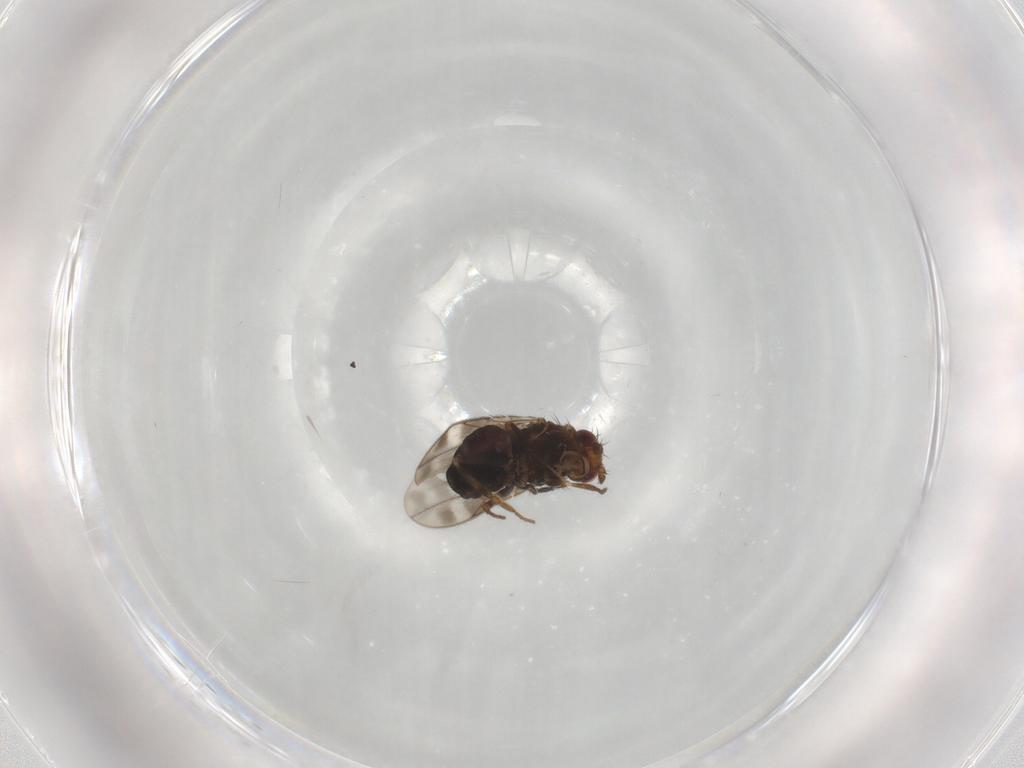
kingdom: Animalia
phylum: Arthropoda
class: Insecta
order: Diptera
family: Sphaeroceridae
